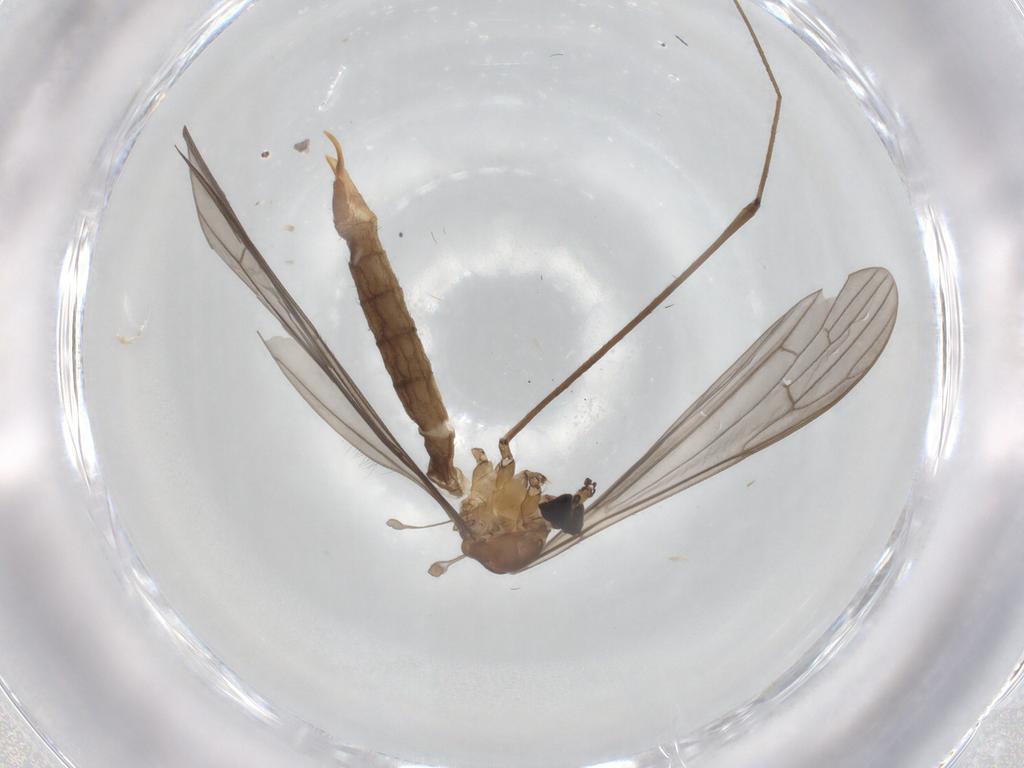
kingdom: Animalia
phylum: Arthropoda
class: Insecta
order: Diptera
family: Limoniidae
